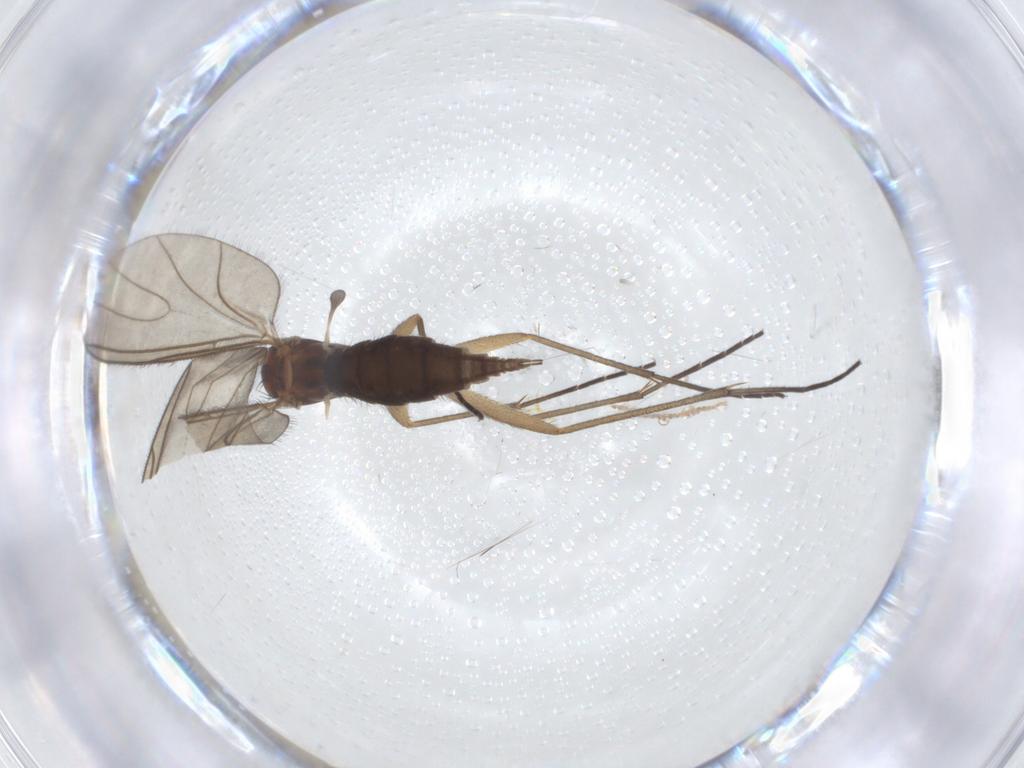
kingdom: Animalia
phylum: Arthropoda
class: Insecta
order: Diptera
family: Sciaridae
